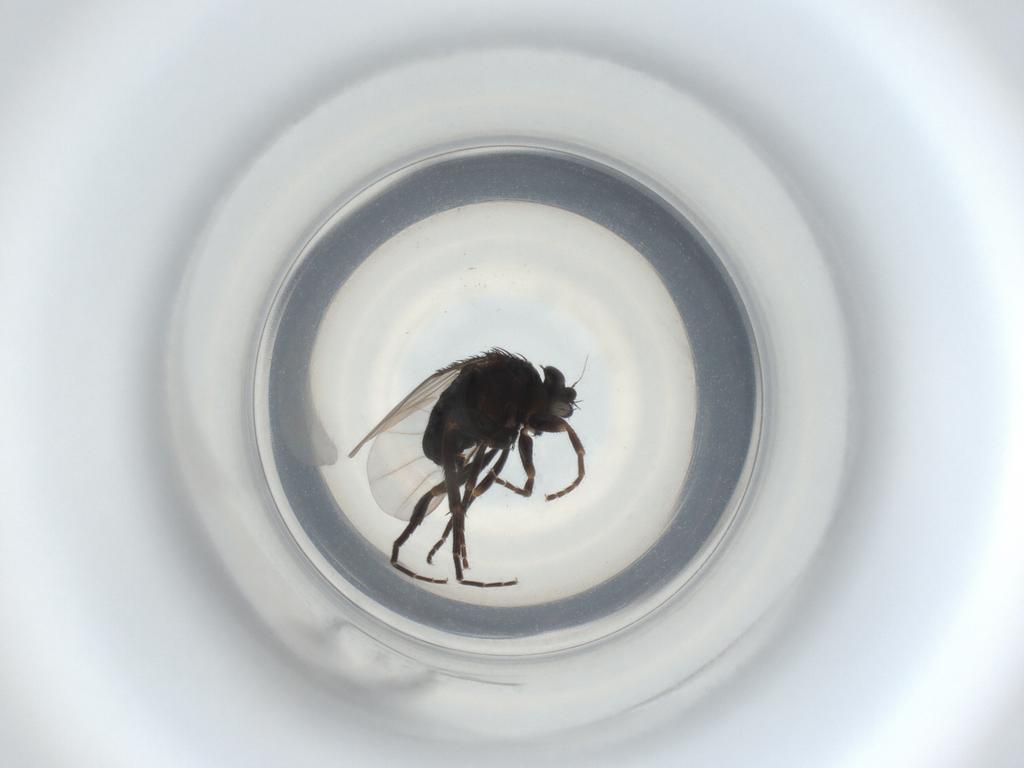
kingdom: Animalia
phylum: Arthropoda
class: Insecta
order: Diptera
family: Phoridae
